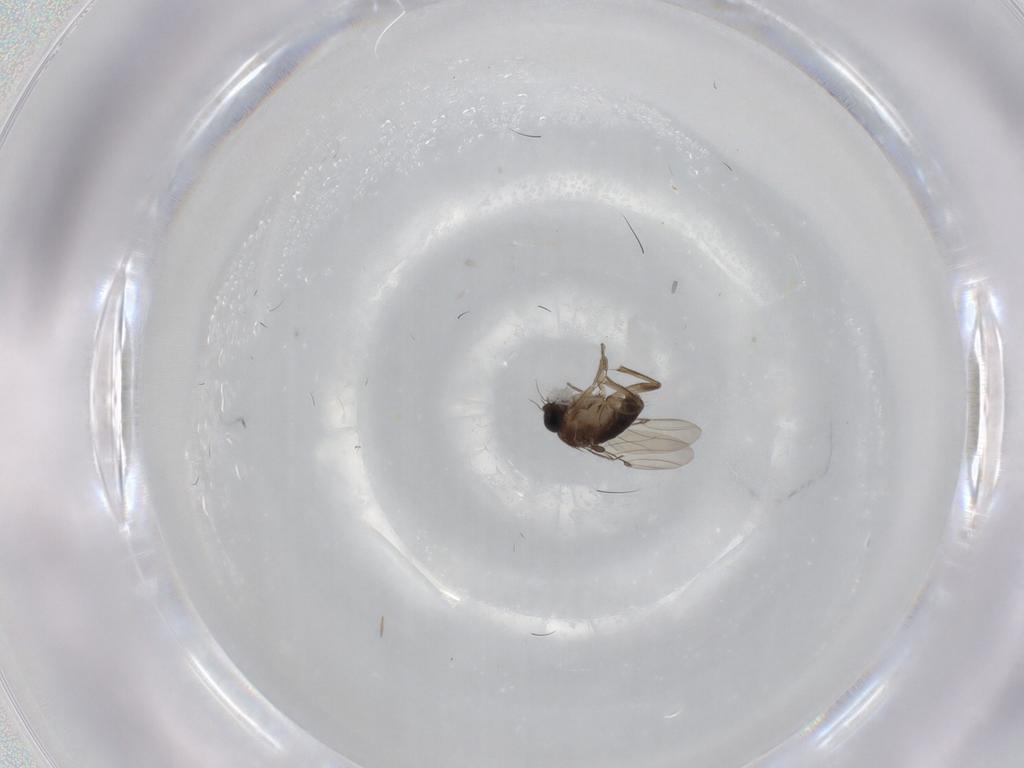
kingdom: Animalia
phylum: Arthropoda
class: Insecta
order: Diptera
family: Phoridae
